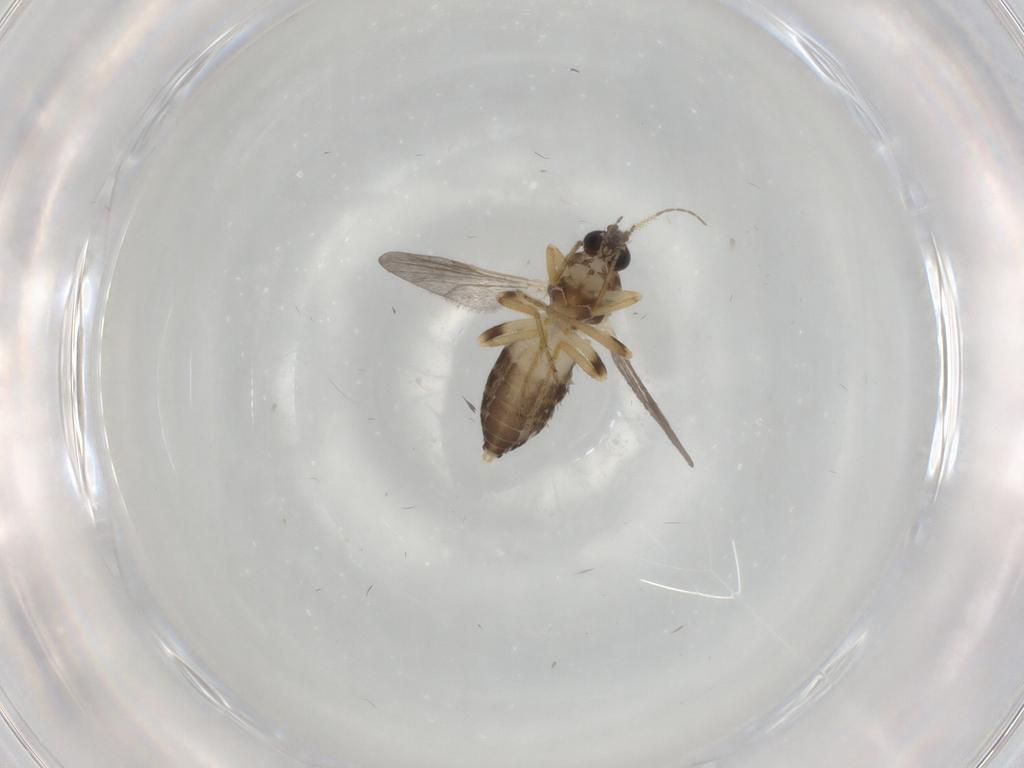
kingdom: Animalia
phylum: Arthropoda
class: Insecta
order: Diptera
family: Ceratopogonidae
